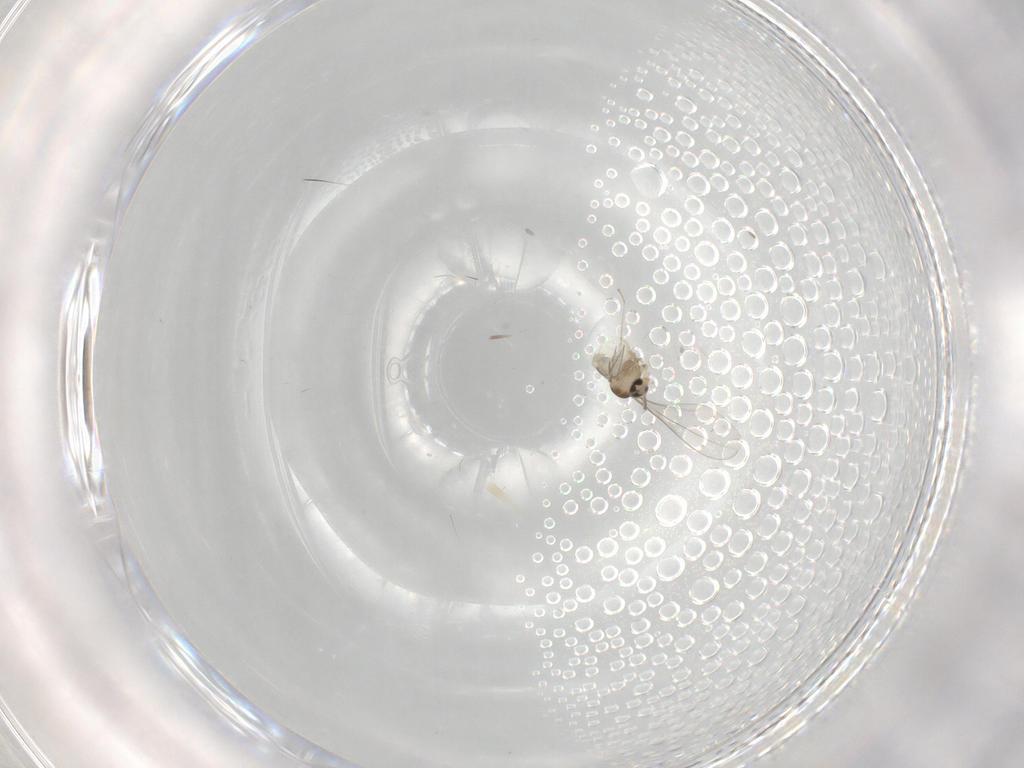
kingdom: Animalia
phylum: Arthropoda
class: Insecta
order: Diptera
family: Cecidomyiidae
